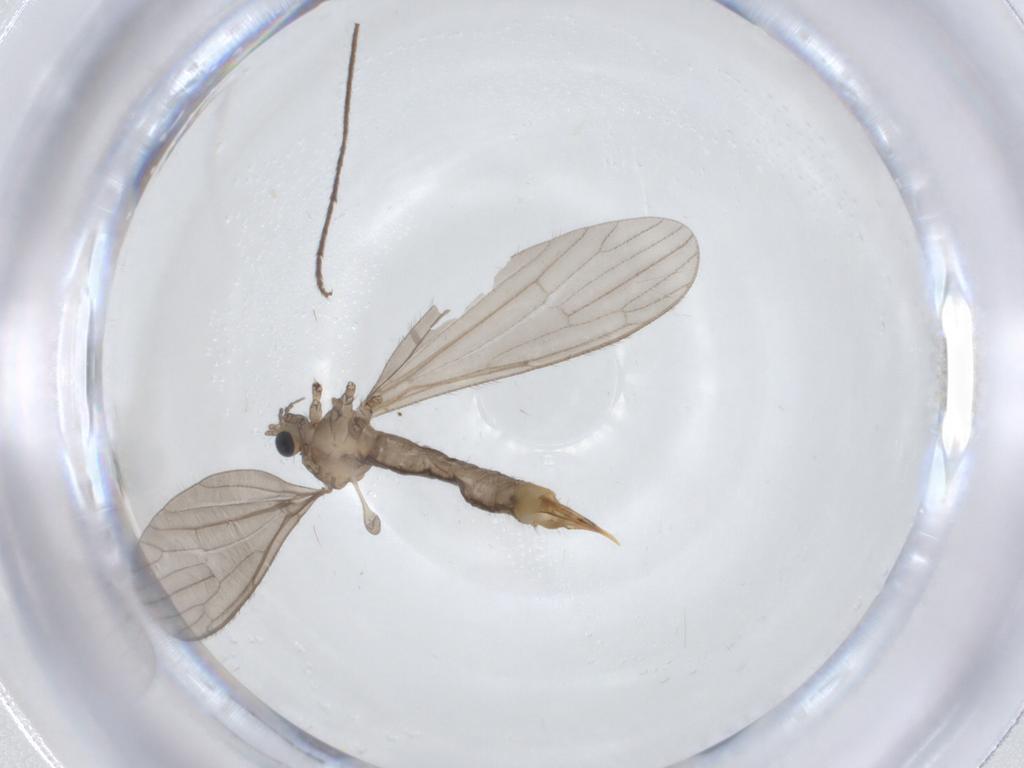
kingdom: Animalia
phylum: Arthropoda
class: Insecta
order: Diptera
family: Limoniidae
